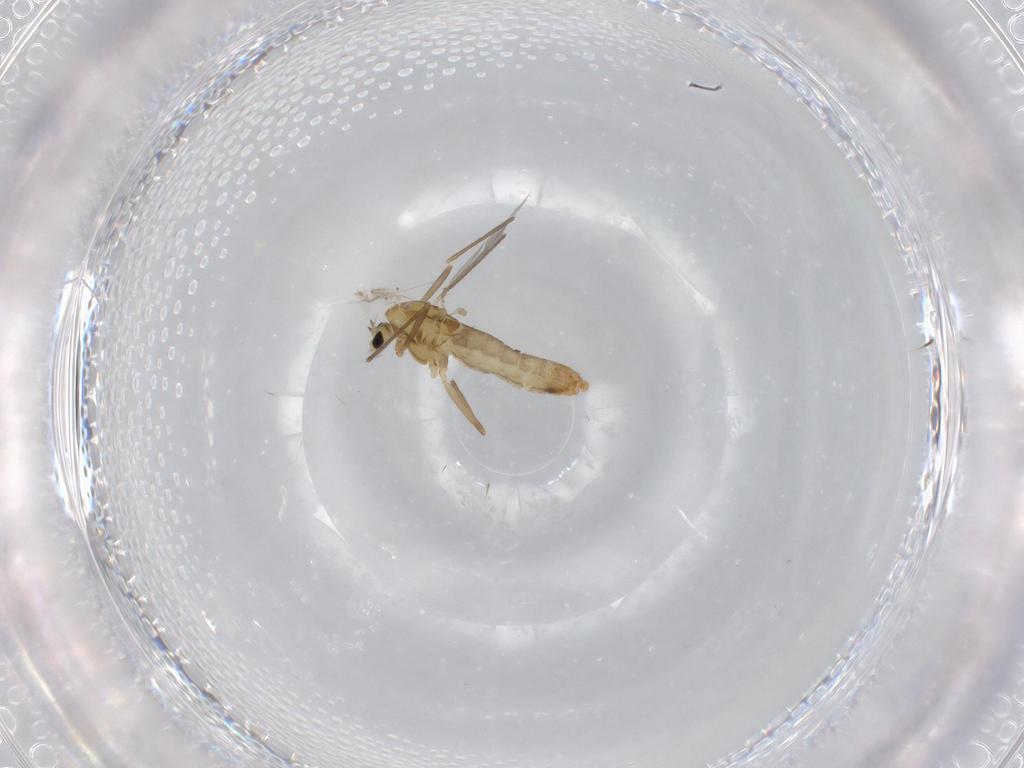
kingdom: Animalia
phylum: Arthropoda
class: Insecta
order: Diptera
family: Chironomidae
